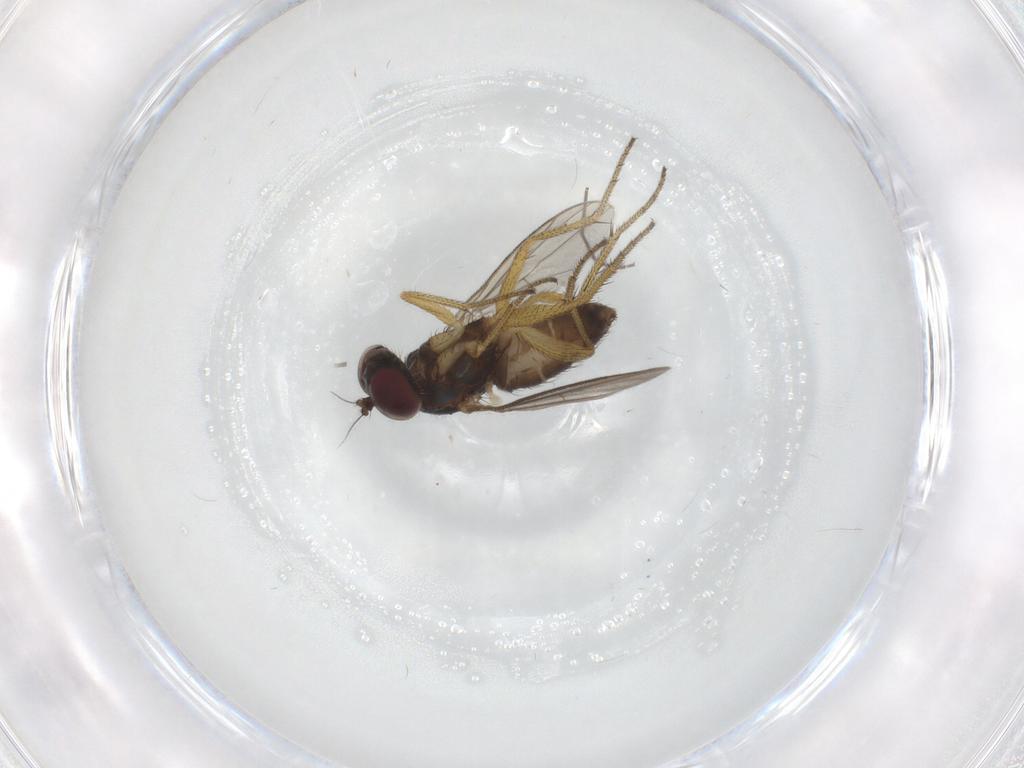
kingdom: Animalia
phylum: Arthropoda
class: Insecta
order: Diptera
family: Dolichopodidae
